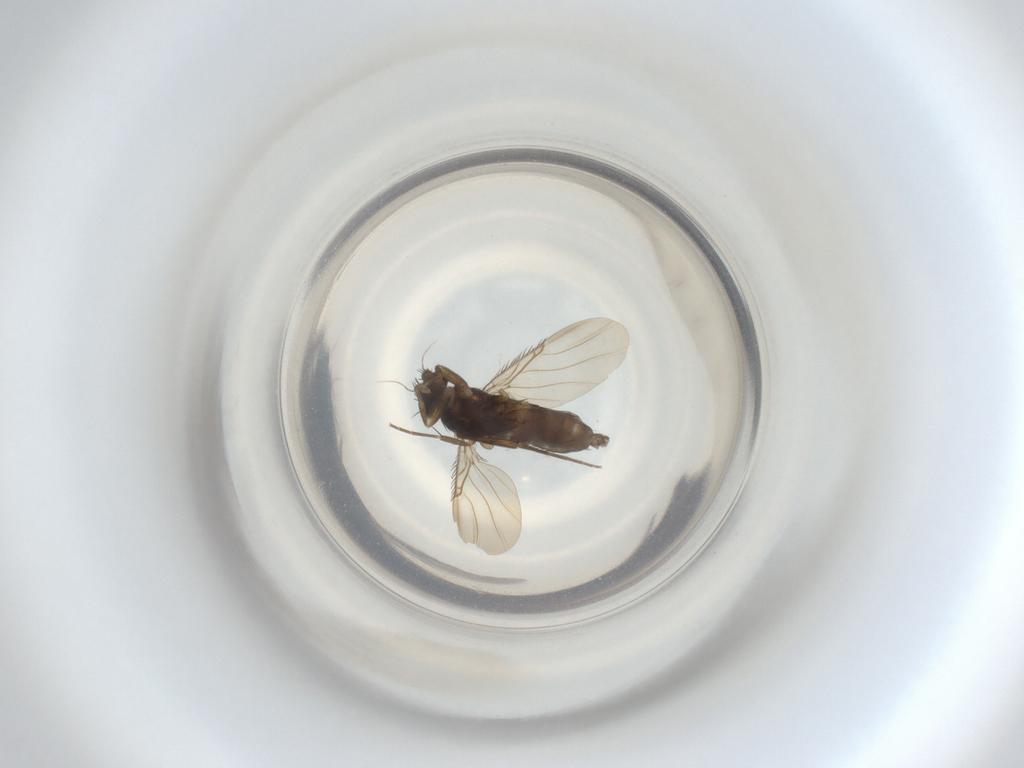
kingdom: Animalia
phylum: Arthropoda
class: Insecta
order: Diptera
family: Phoridae
